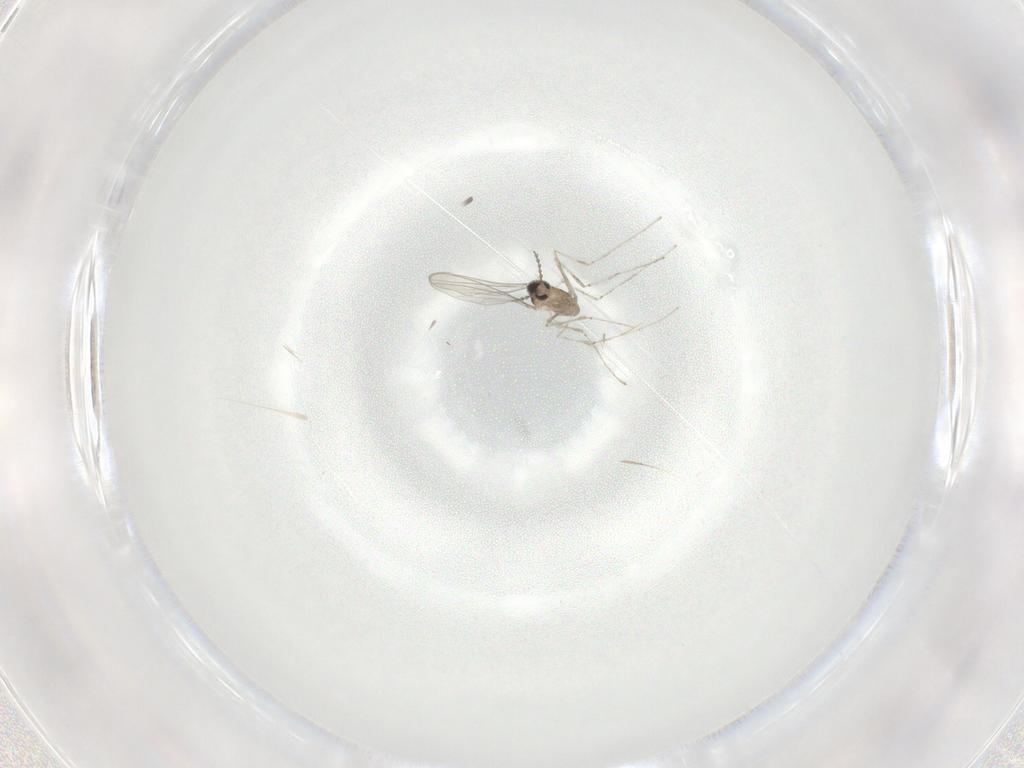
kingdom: Animalia
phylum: Arthropoda
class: Insecta
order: Diptera
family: Cecidomyiidae
